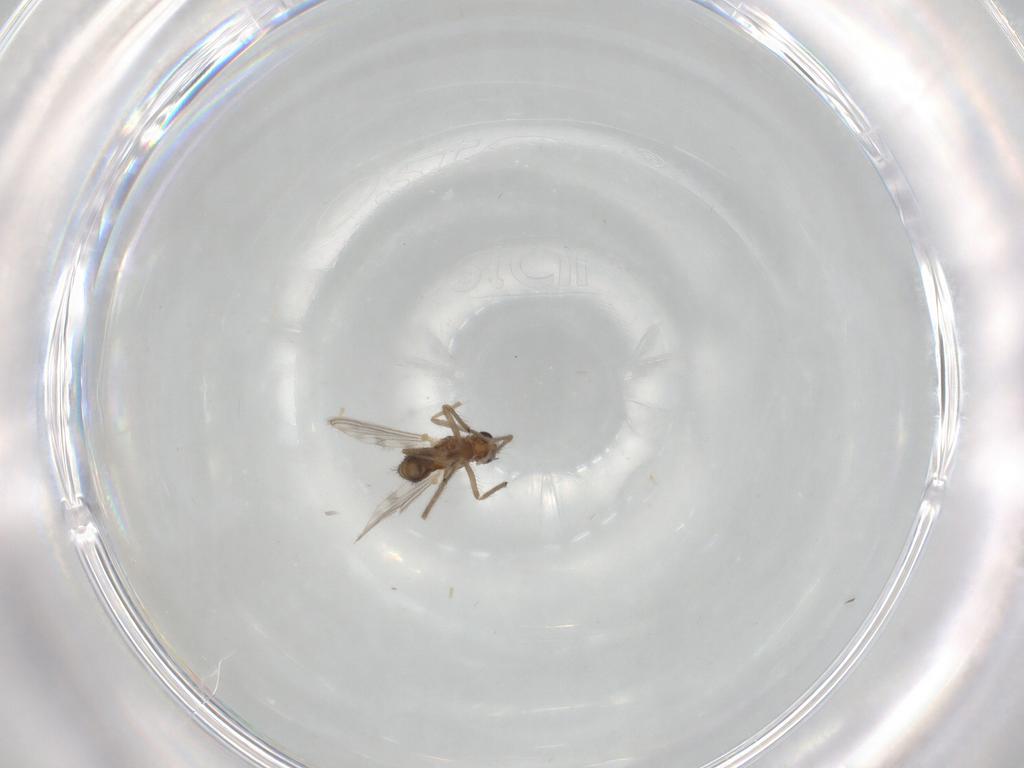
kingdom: Animalia
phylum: Arthropoda
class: Insecta
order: Diptera
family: Chironomidae
